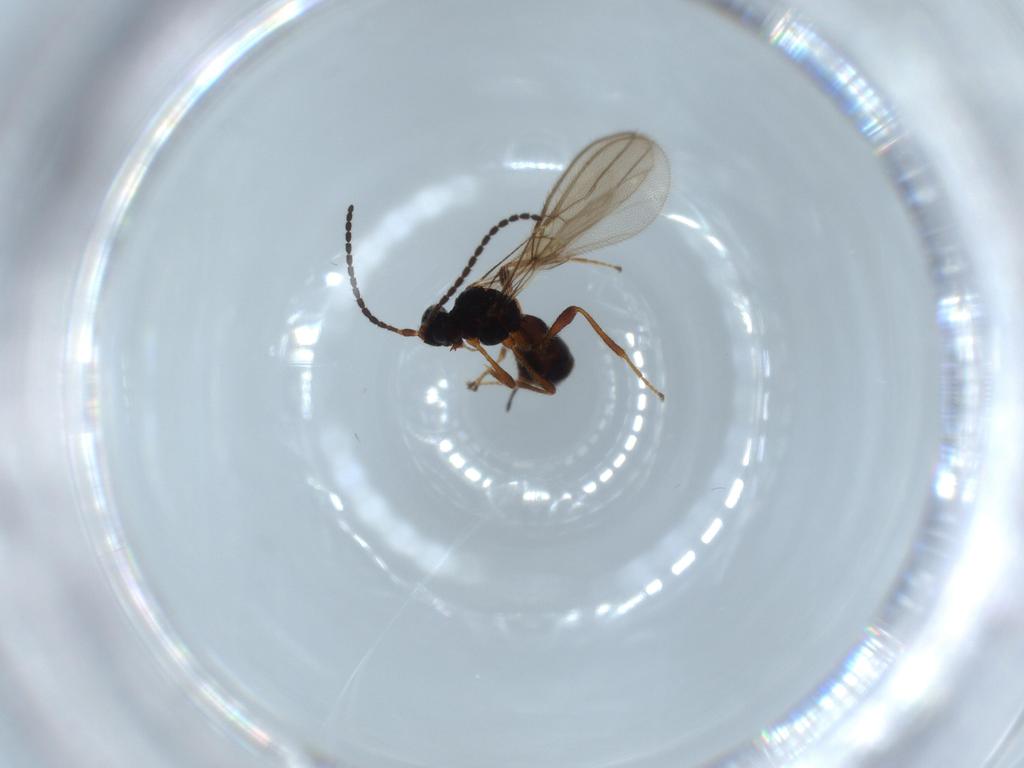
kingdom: Animalia
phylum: Arthropoda
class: Insecta
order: Hymenoptera
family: Braconidae
